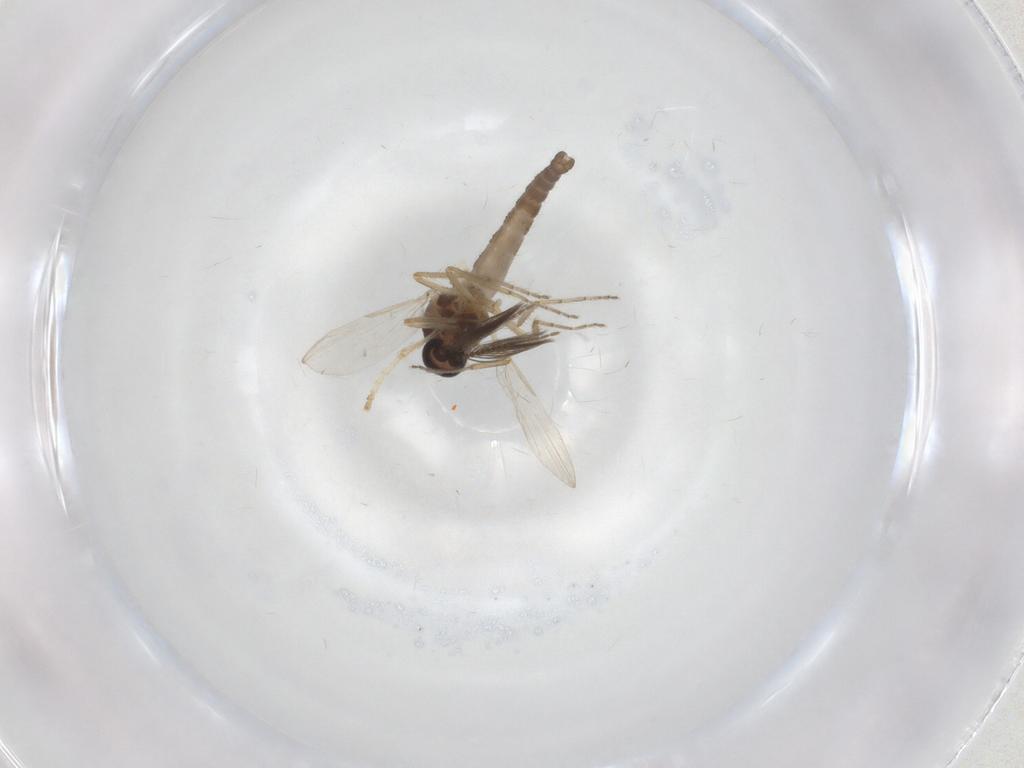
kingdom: Animalia
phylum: Arthropoda
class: Insecta
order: Diptera
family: Ceratopogonidae
